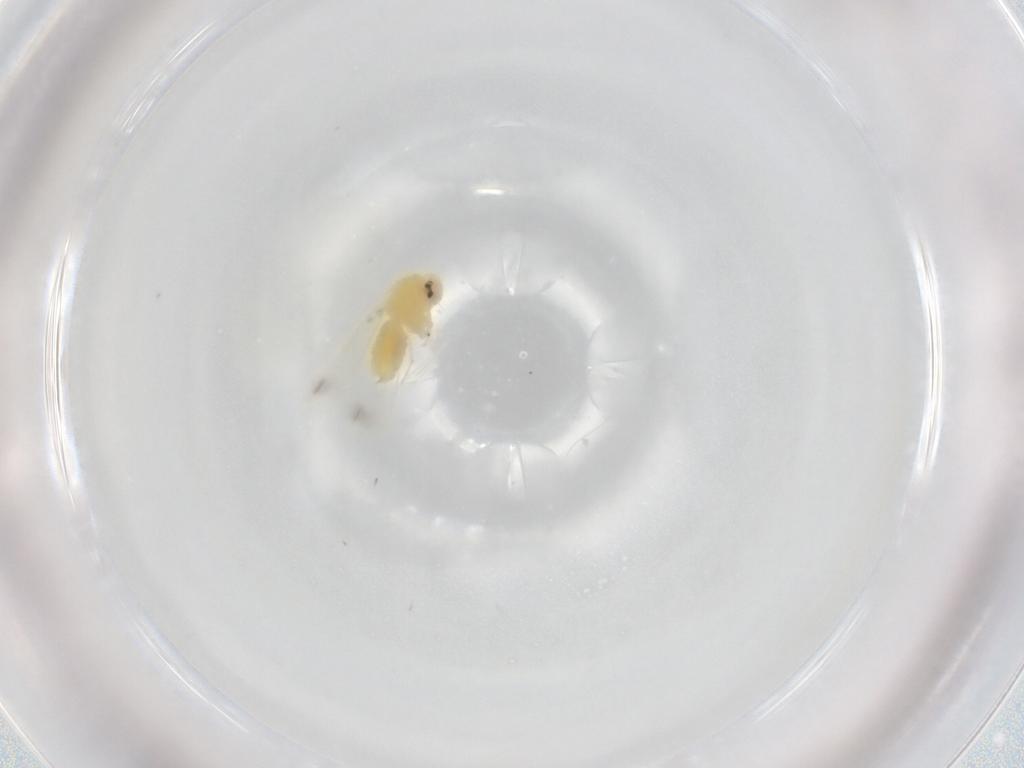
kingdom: Animalia
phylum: Arthropoda
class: Insecta
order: Hemiptera
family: Aleyrodidae
